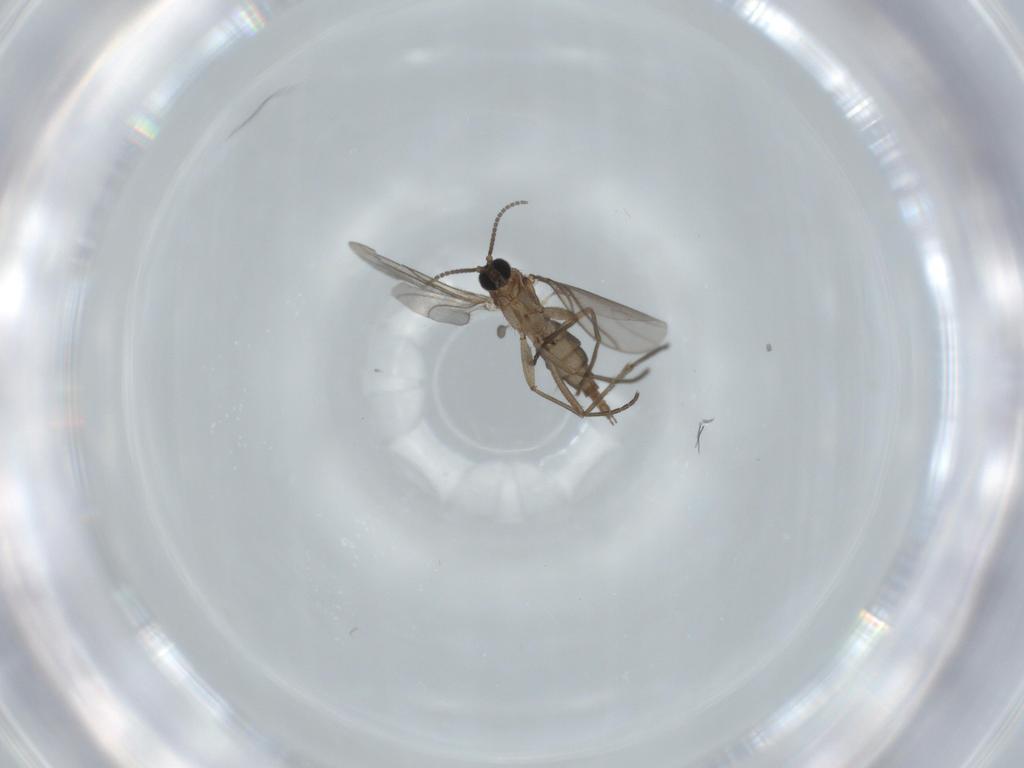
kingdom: Animalia
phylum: Arthropoda
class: Insecta
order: Diptera
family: Sciaridae
